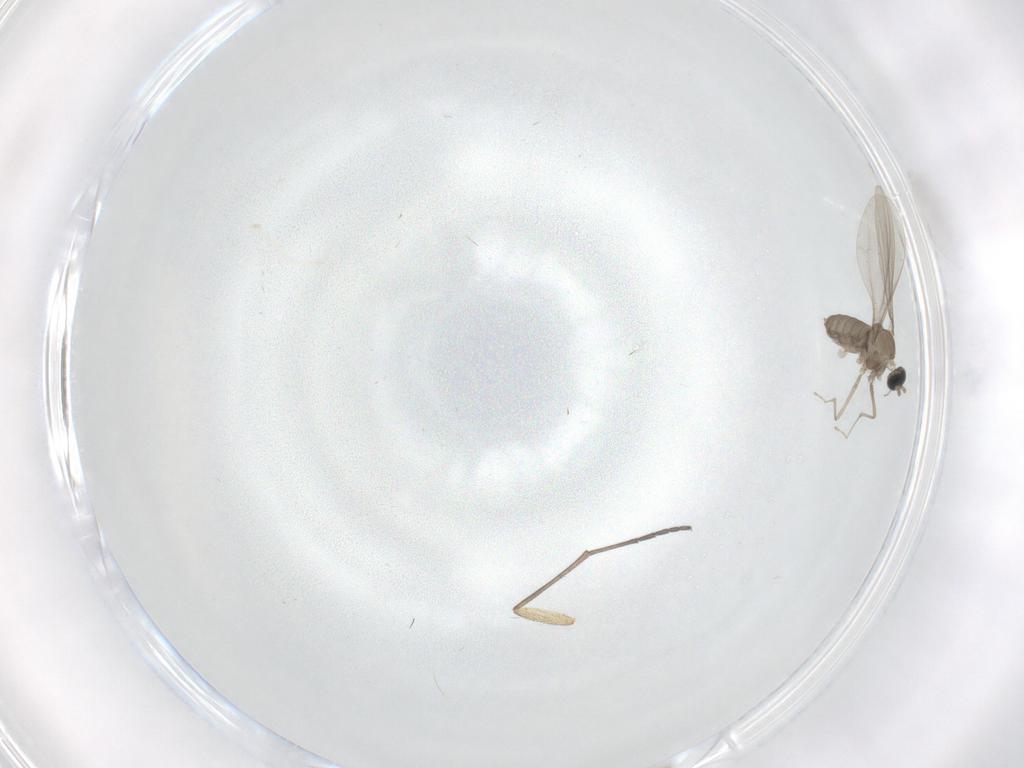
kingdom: Animalia
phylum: Arthropoda
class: Insecta
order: Diptera
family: Cecidomyiidae
